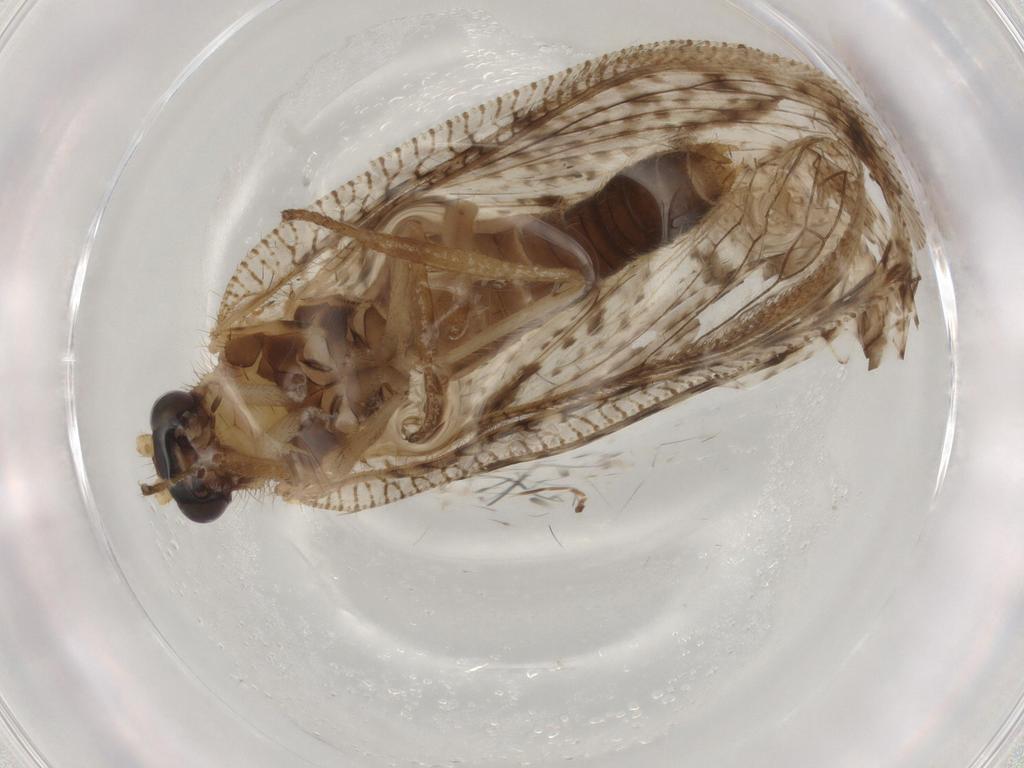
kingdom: Animalia
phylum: Arthropoda
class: Insecta
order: Neuroptera
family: Hemerobiidae
